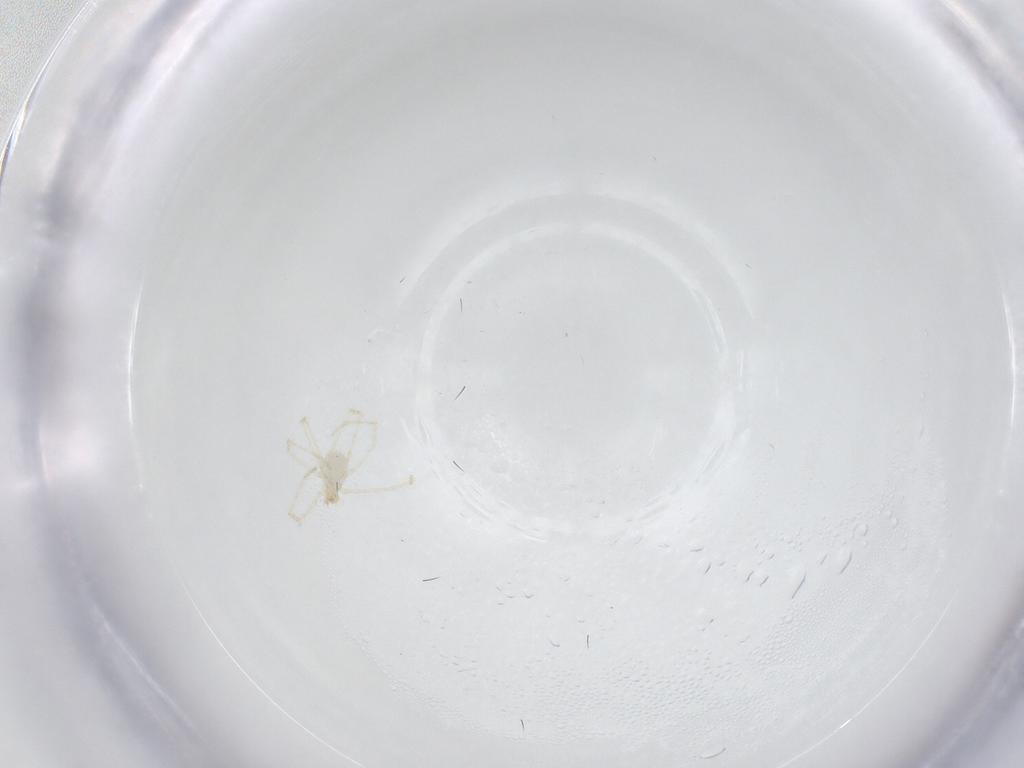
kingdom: Animalia
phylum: Arthropoda
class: Arachnida
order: Trombidiformes
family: Erythraeidae
